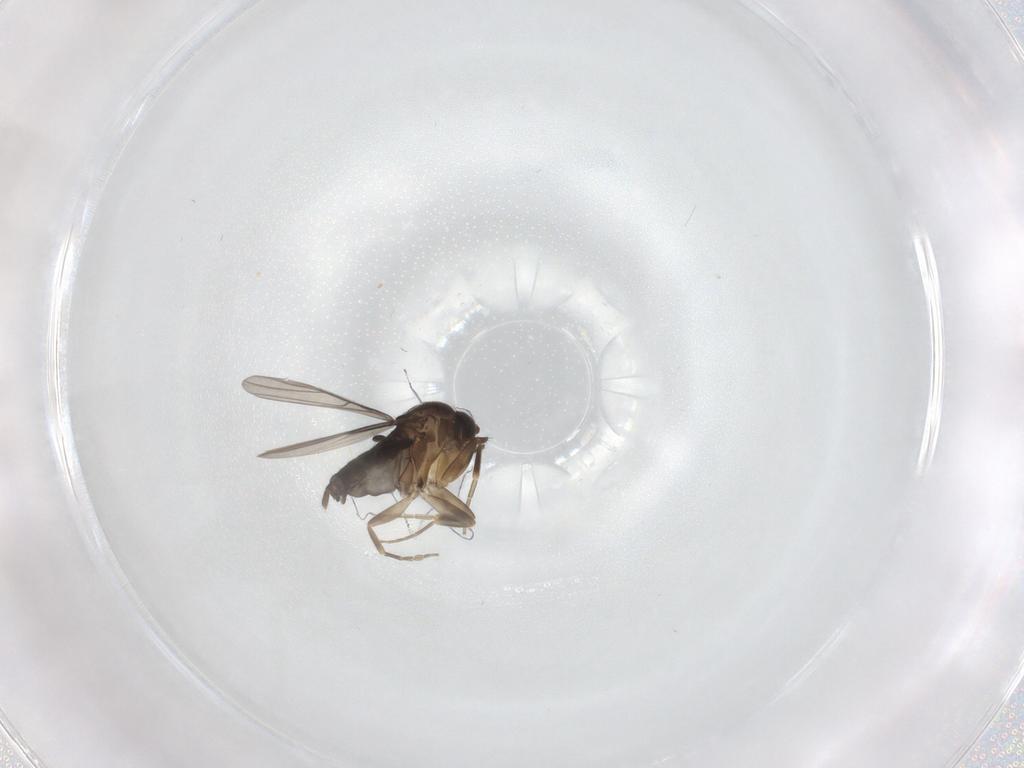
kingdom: Animalia
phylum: Arthropoda
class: Insecta
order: Diptera
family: Phoridae
